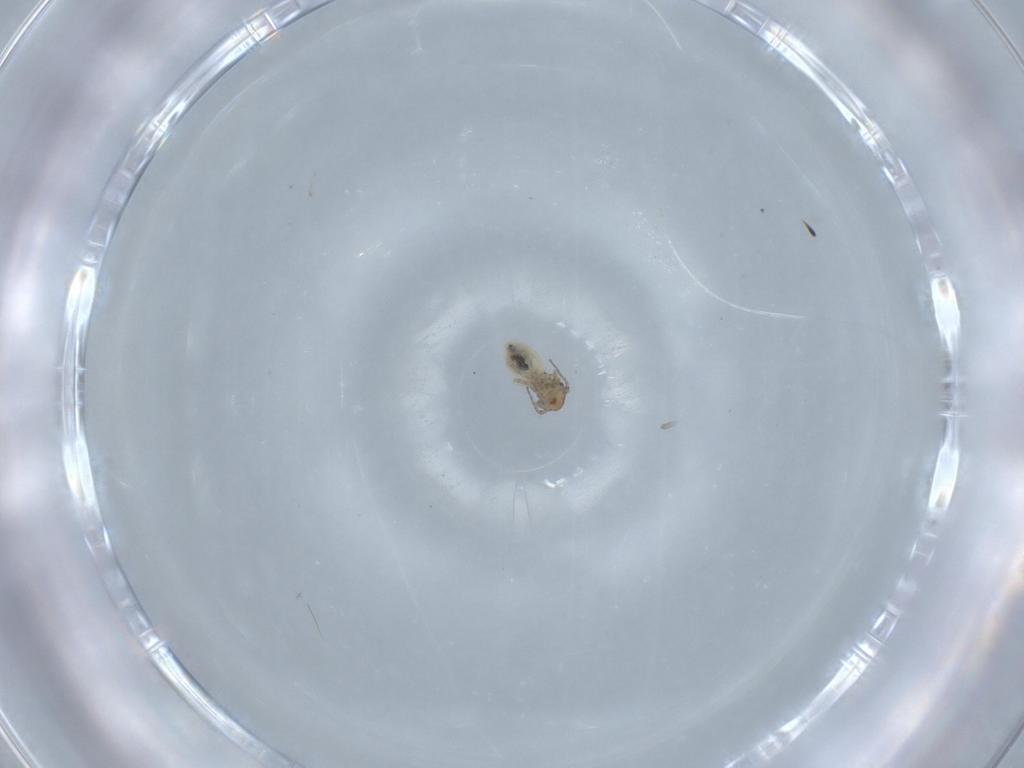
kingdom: Animalia
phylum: Arthropoda
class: Insecta
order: Psocodea
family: Lepidopsocidae
